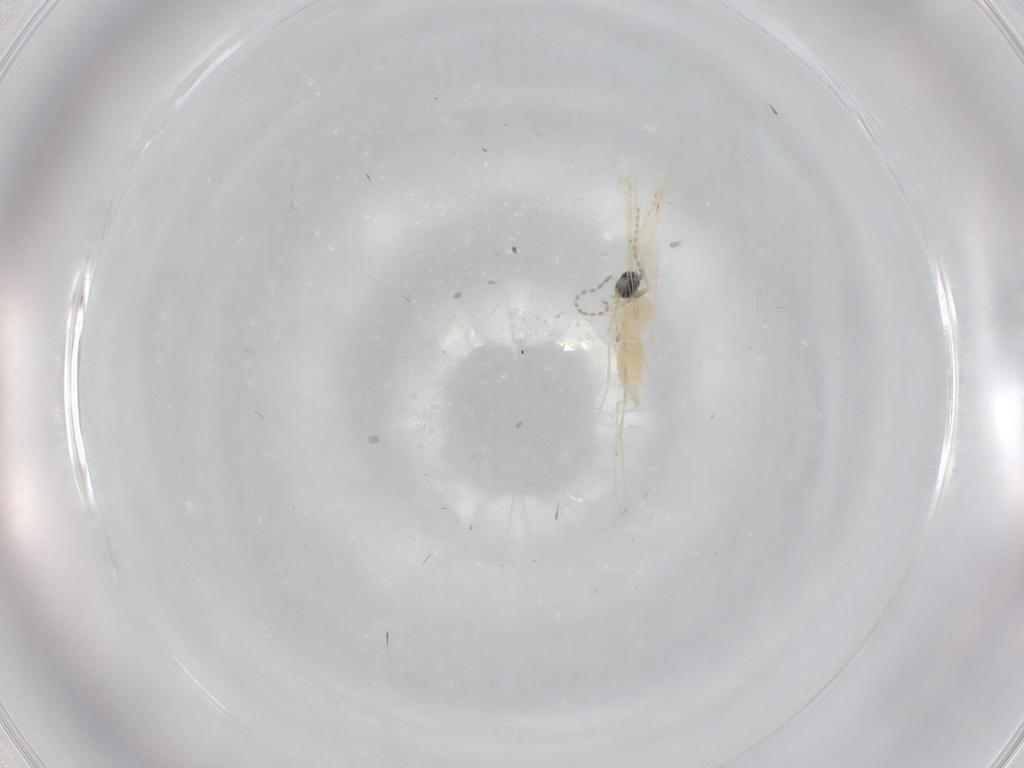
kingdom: Animalia
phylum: Arthropoda
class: Insecta
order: Diptera
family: Cecidomyiidae
